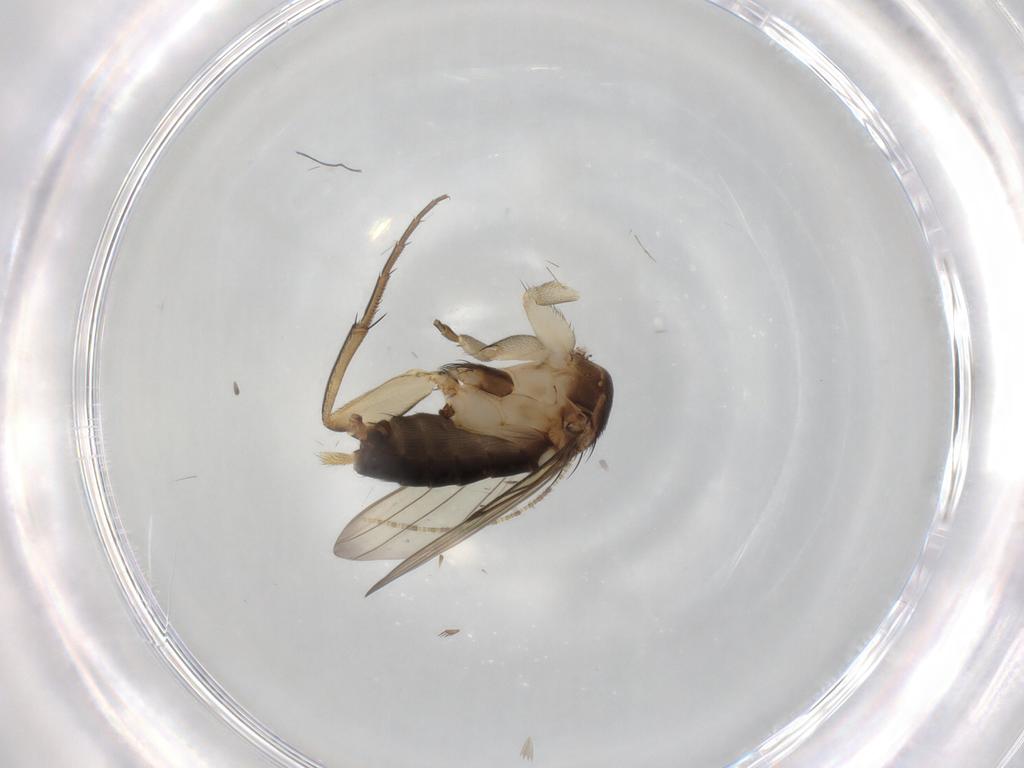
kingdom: Animalia
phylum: Arthropoda
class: Insecta
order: Diptera
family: Phoridae
